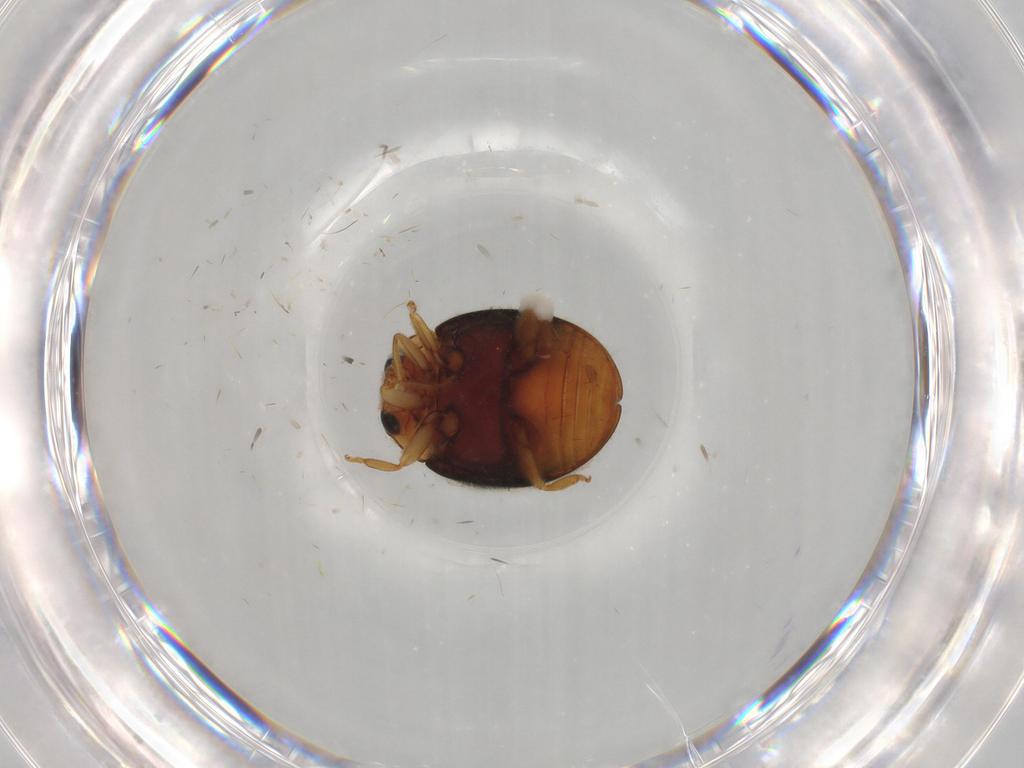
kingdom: Animalia
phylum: Arthropoda
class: Insecta
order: Coleoptera
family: Coccinellidae
